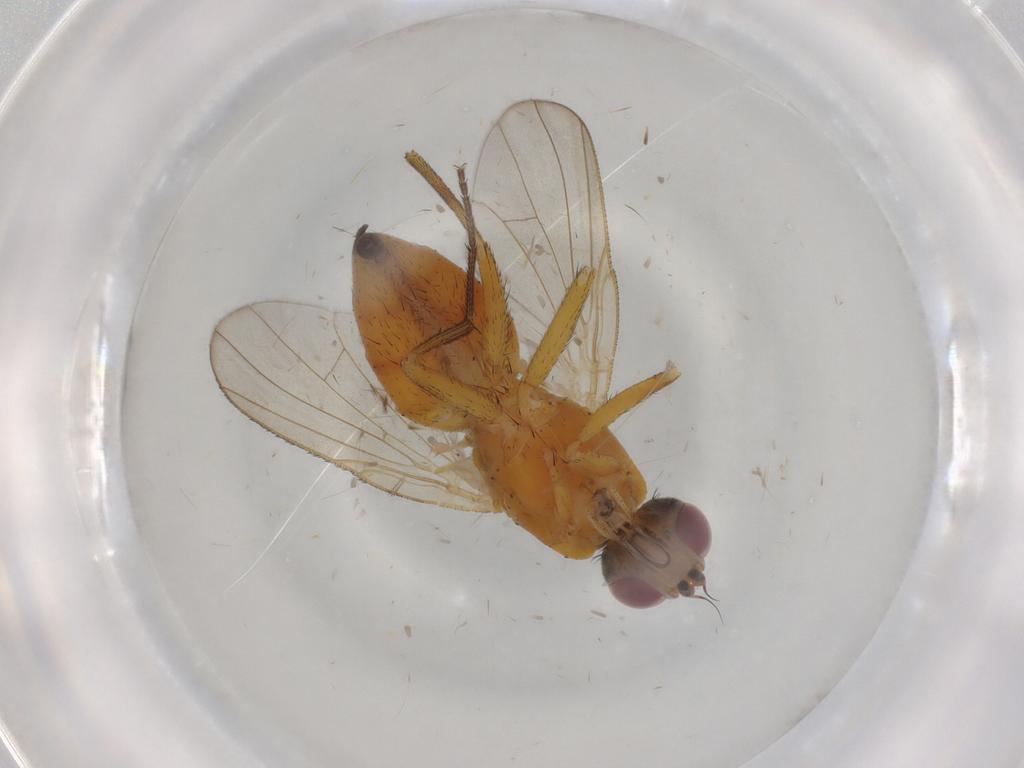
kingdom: Animalia
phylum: Arthropoda
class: Insecta
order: Diptera
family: Muscidae
